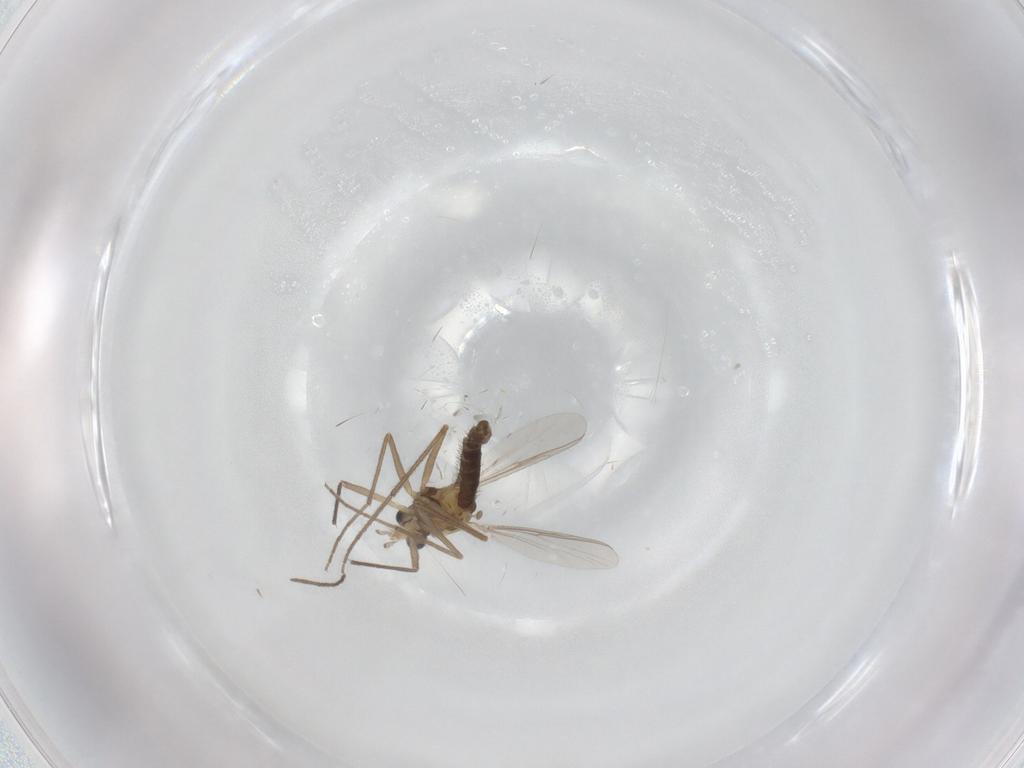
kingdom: Animalia
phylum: Arthropoda
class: Insecta
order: Diptera
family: Chironomidae
